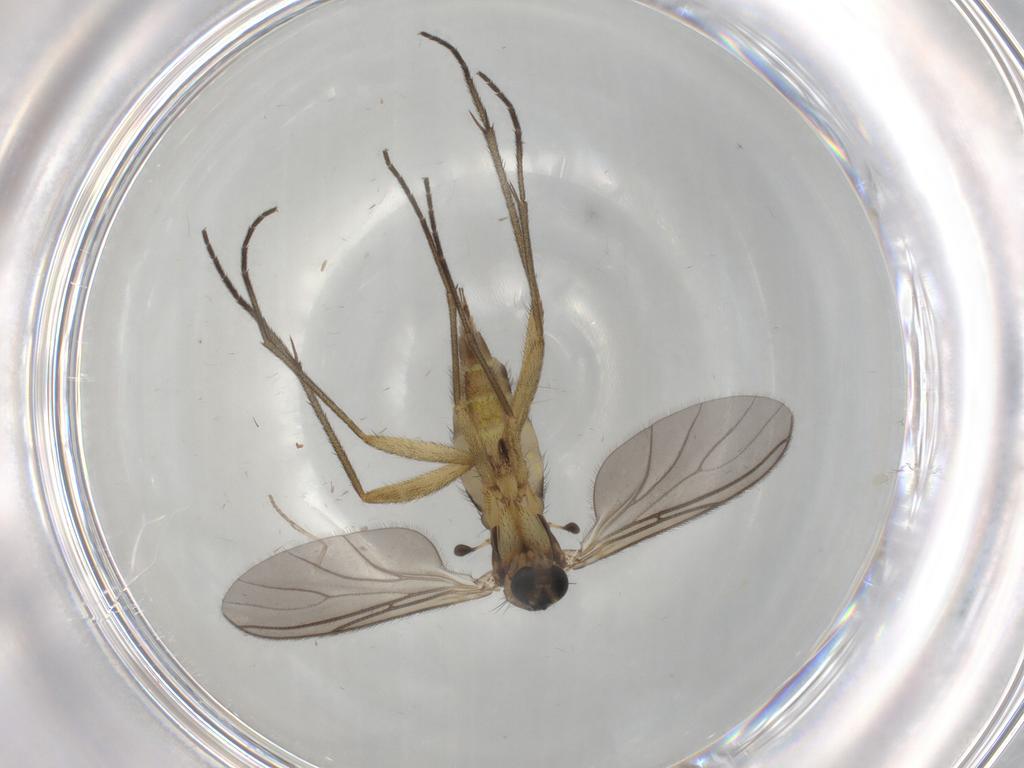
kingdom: Animalia
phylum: Arthropoda
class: Insecta
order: Diptera
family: Sciaridae
